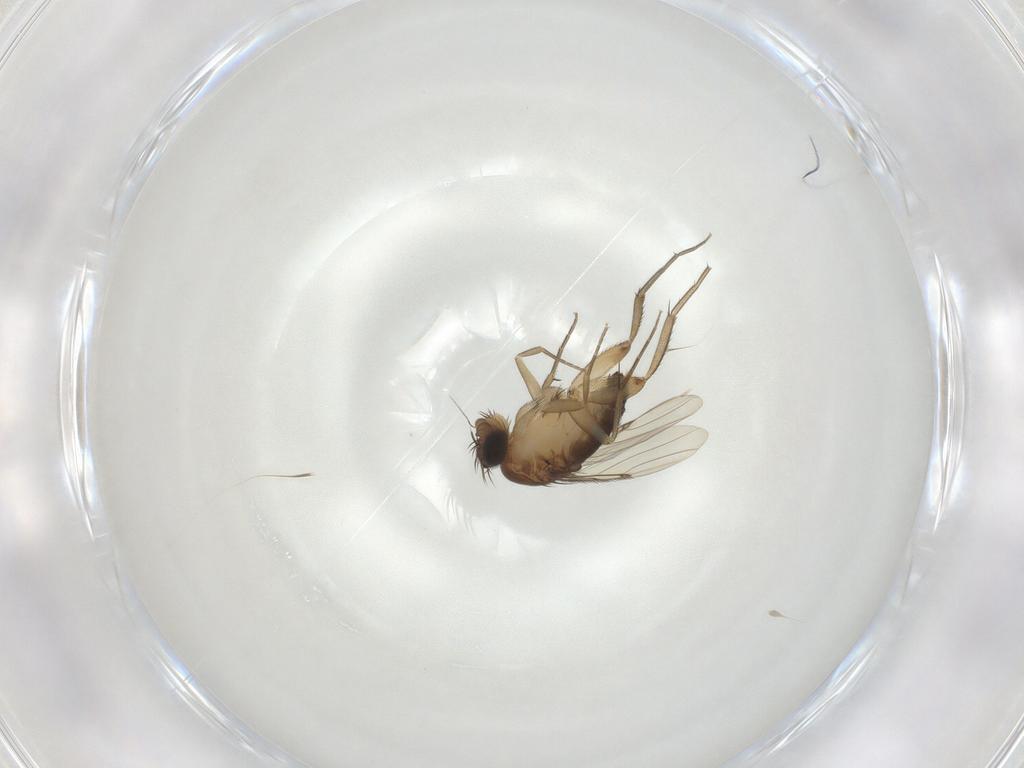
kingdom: Animalia
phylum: Arthropoda
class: Insecta
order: Diptera
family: Phoridae
